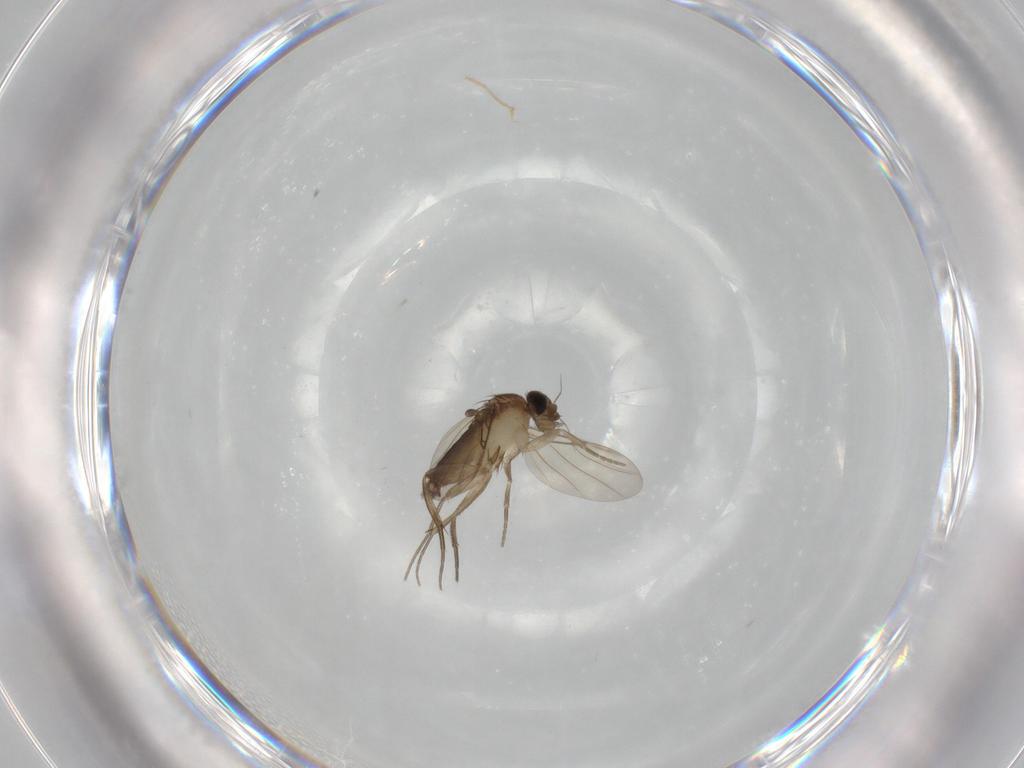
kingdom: Animalia
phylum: Arthropoda
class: Insecta
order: Diptera
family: Phoridae
